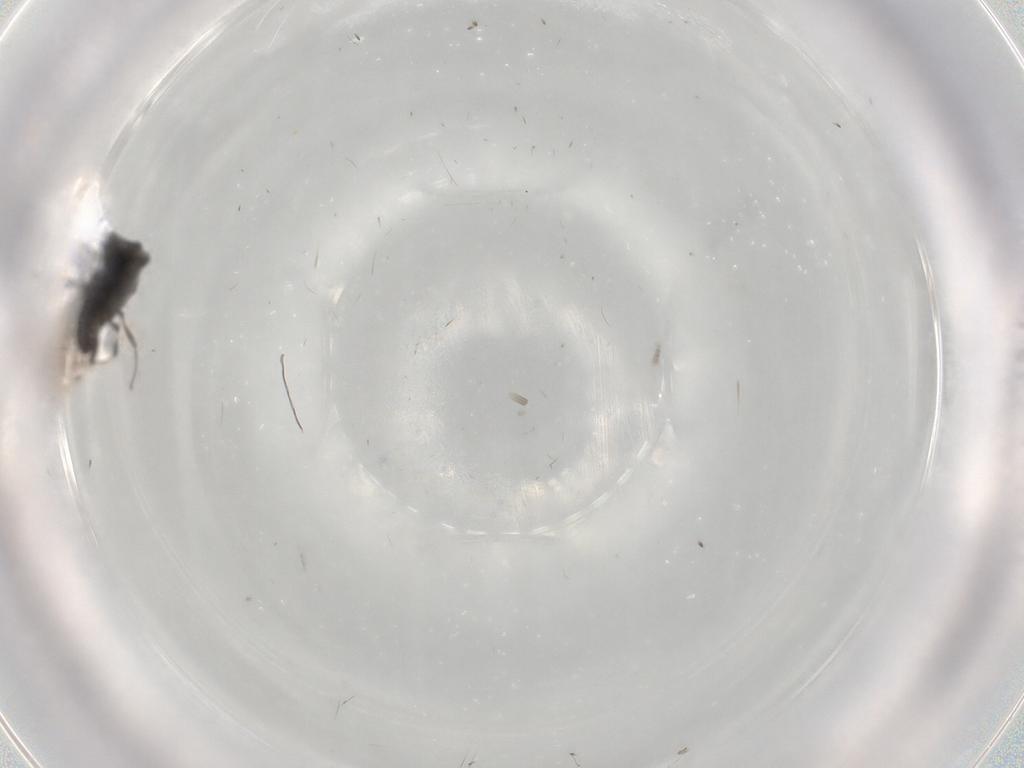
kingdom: Animalia
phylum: Arthropoda
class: Insecta
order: Hymenoptera
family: Scelionidae
